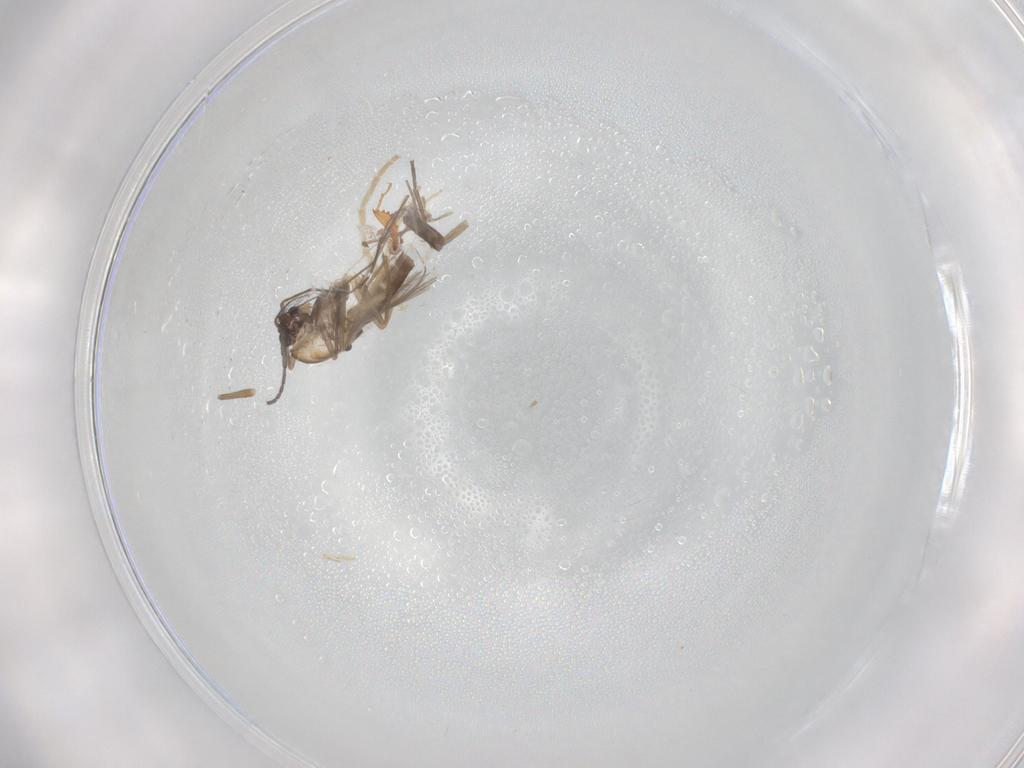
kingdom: Animalia
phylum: Arthropoda
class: Insecta
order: Diptera
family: Chironomidae
